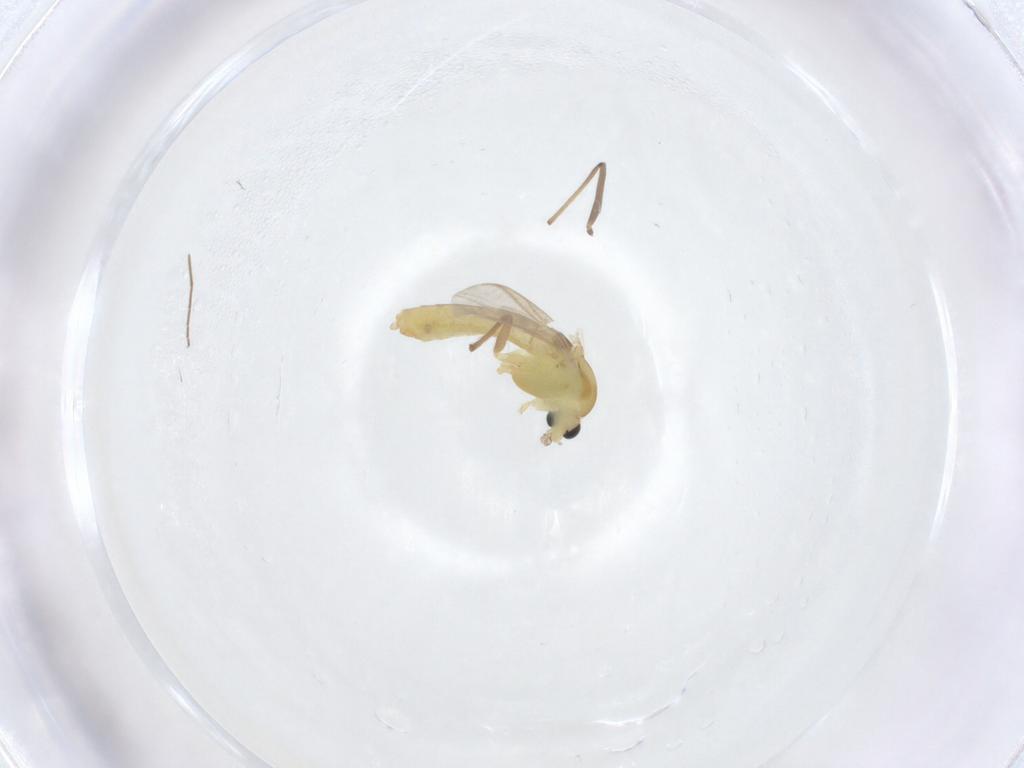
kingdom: Animalia
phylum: Arthropoda
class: Insecta
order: Diptera
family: Chironomidae
